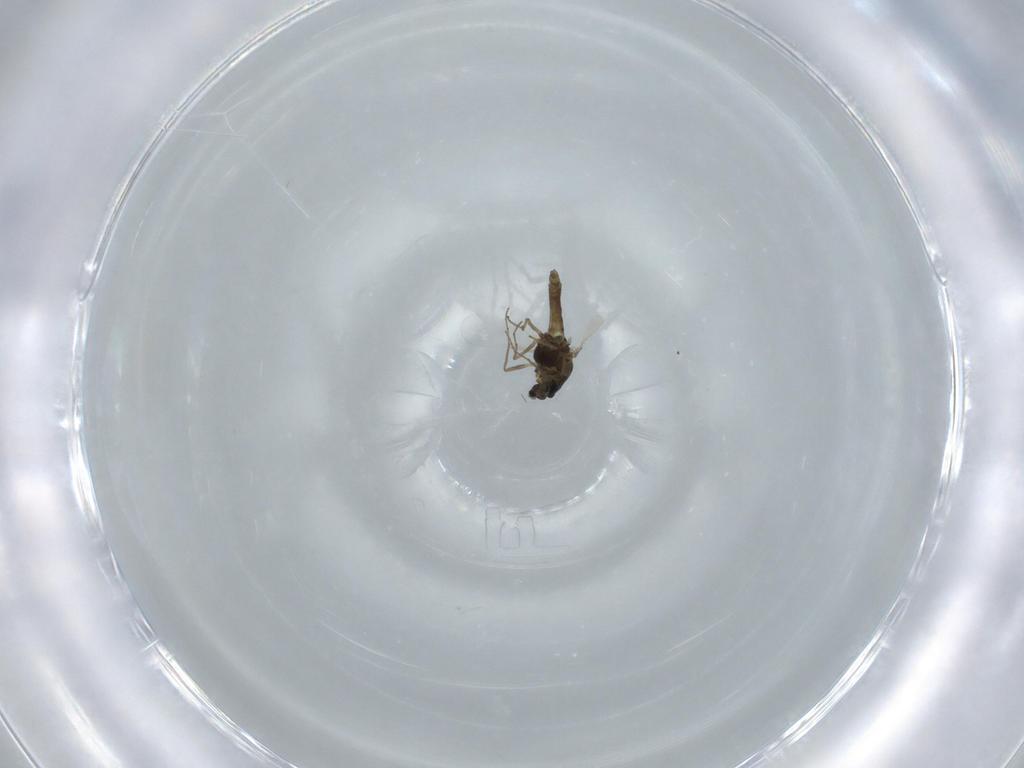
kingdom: Animalia
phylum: Arthropoda
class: Insecta
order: Diptera
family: Chironomidae
